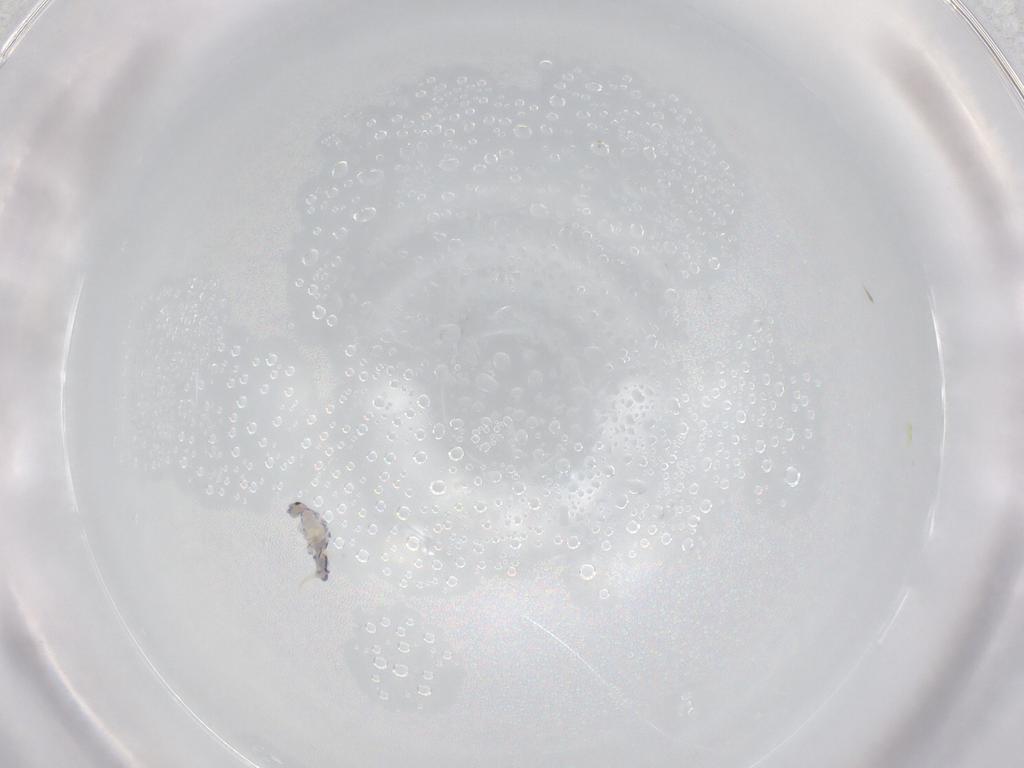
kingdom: Animalia
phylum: Arthropoda
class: Collembola
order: Entomobryomorpha
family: Entomobryidae
